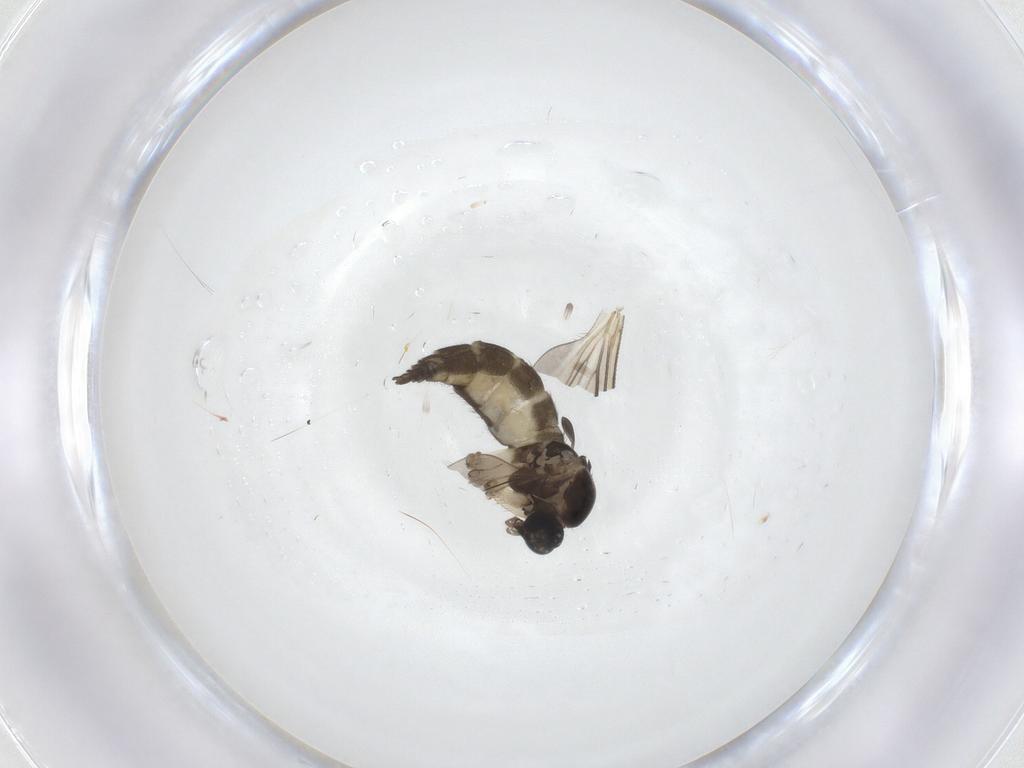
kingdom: Animalia
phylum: Arthropoda
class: Insecta
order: Diptera
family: Sciaridae
